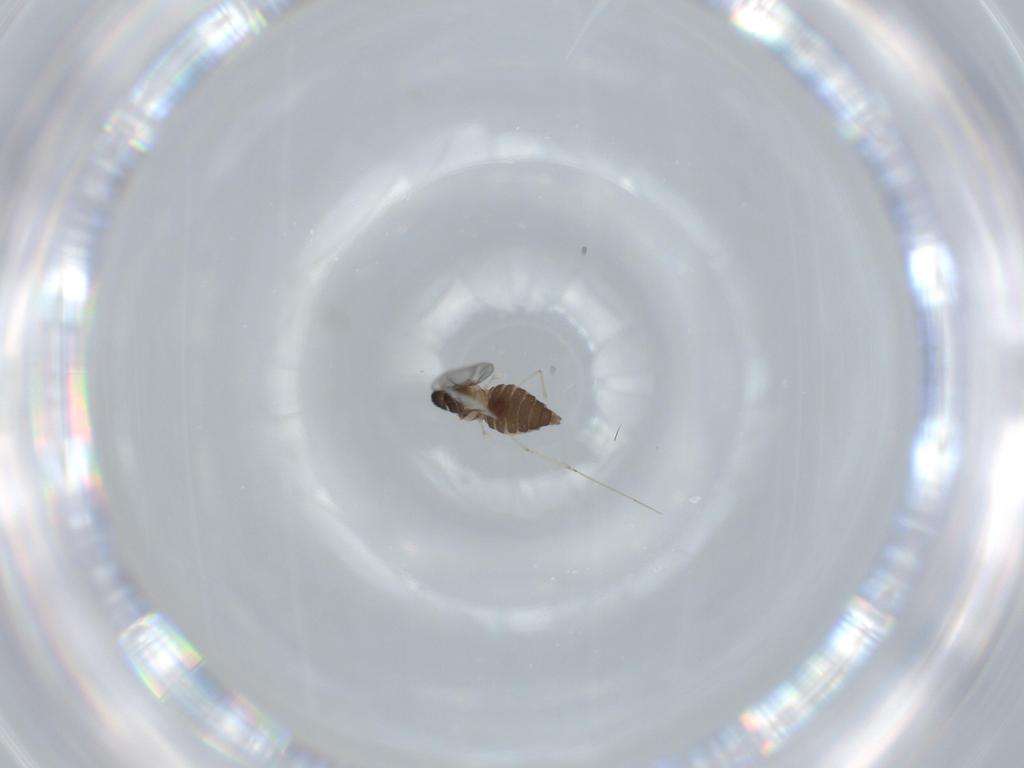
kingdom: Animalia
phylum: Arthropoda
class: Insecta
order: Diptera
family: Cecidomyiidae
